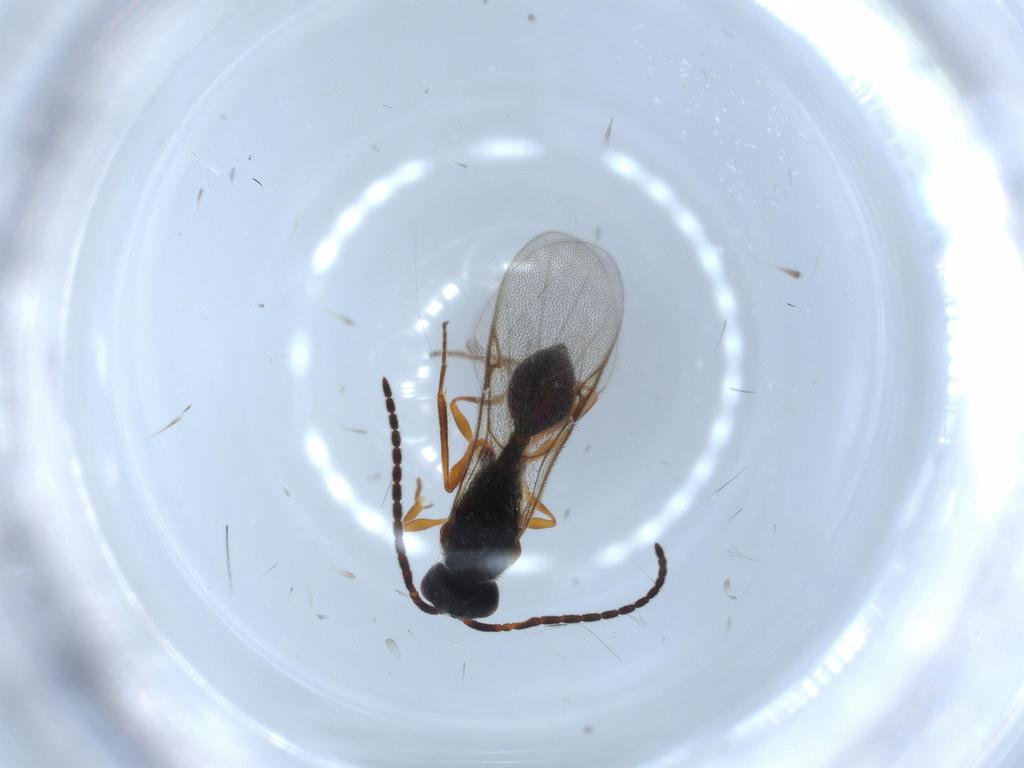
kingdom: Animalia
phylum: Arthropoda
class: Insecta
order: Hymenoptera
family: Diapriidae
